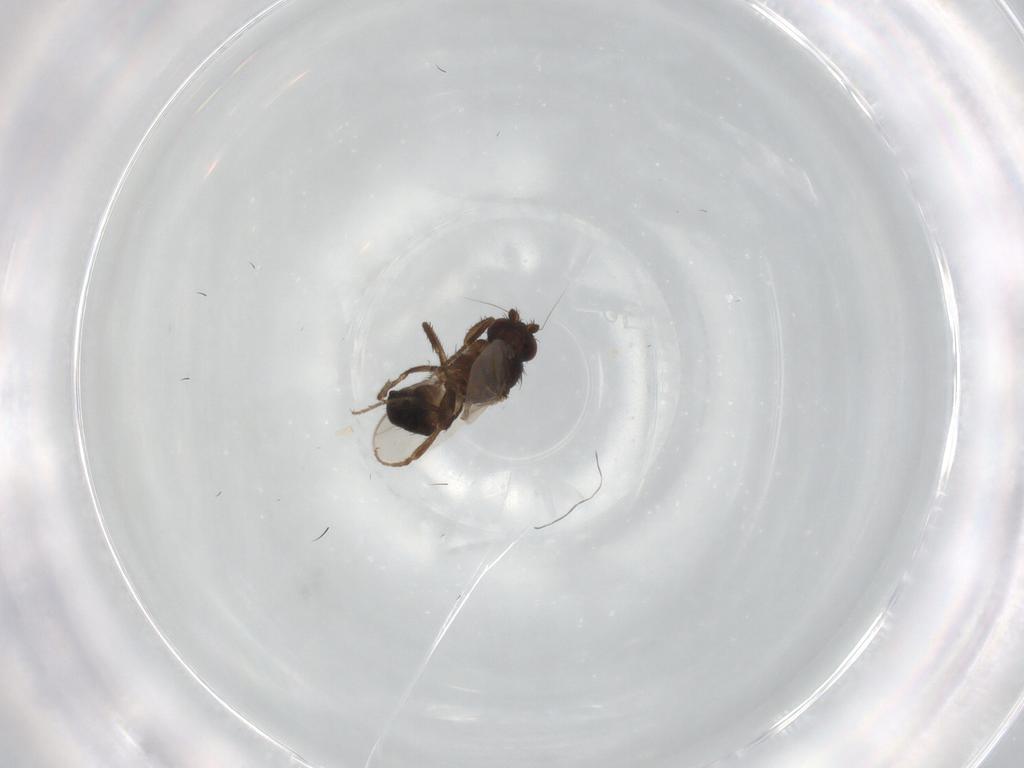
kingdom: Animalia
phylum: Arthropoda
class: Insecta
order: Diptera
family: Sphaeroceridae
